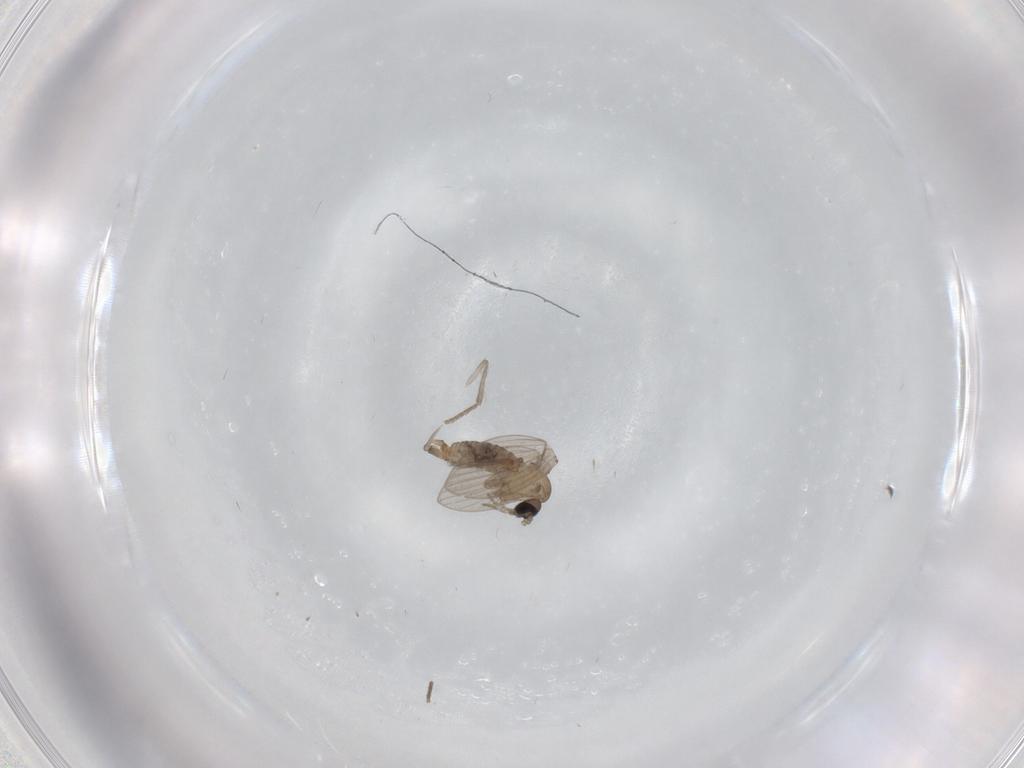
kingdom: Animalia
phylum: Arthropoda
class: Insecta
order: Diptera
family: Psychodidae
